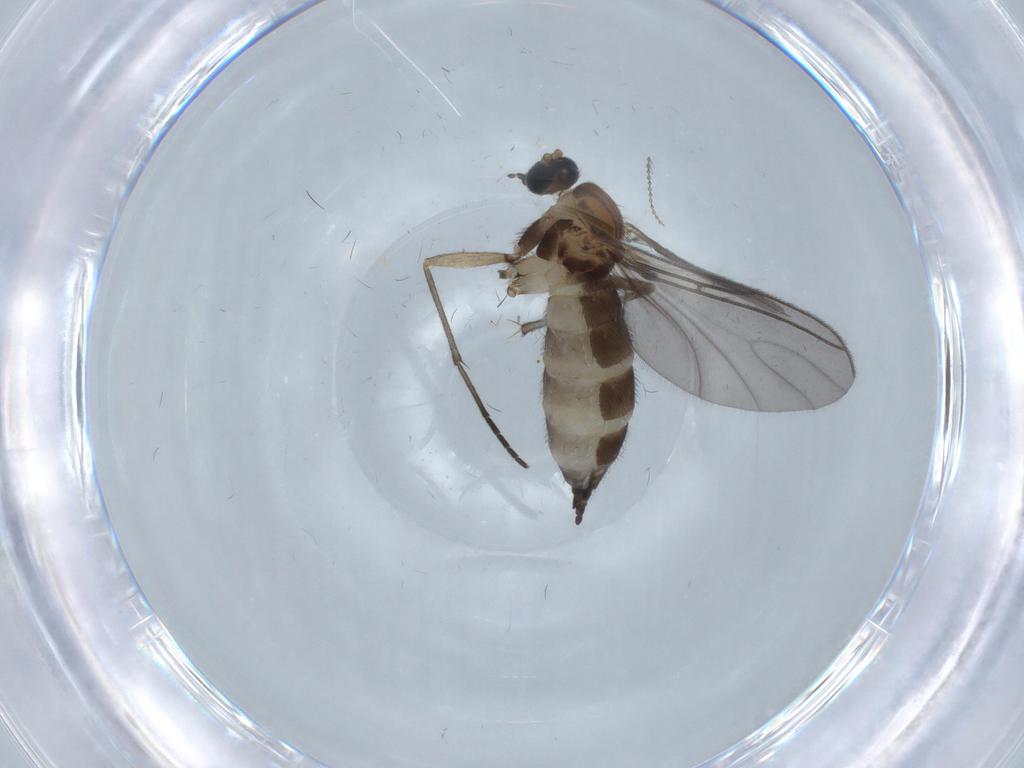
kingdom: Animalia
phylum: Arthropoda
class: Insecta
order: Diptera
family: Sciaridae
